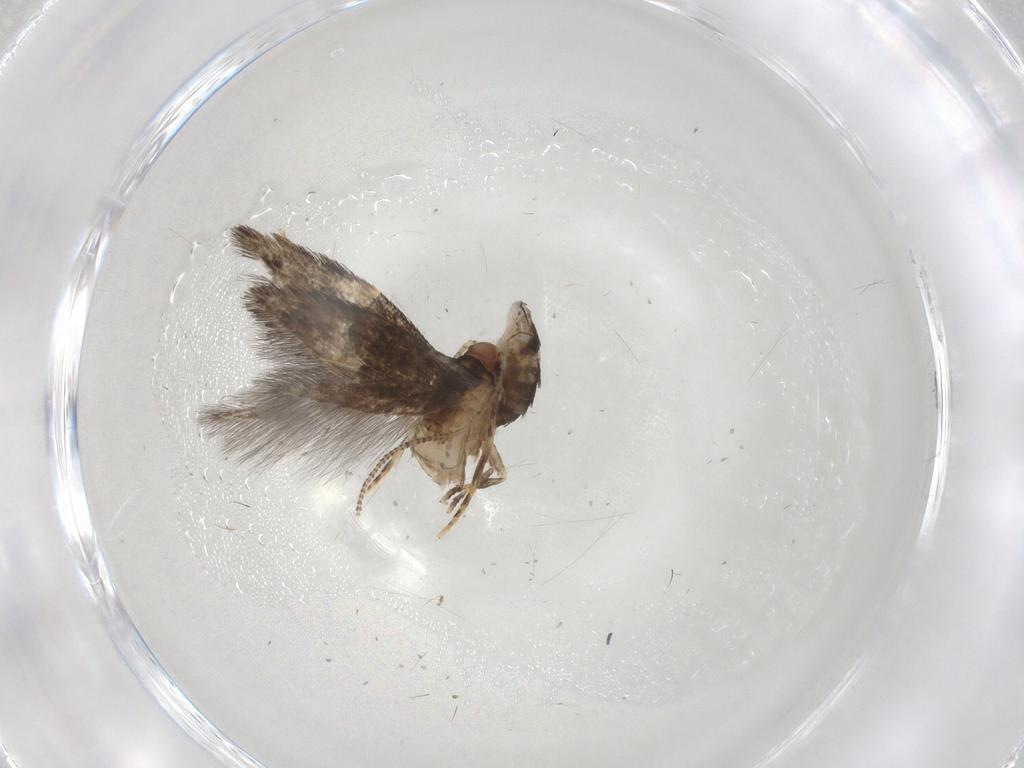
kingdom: Animalia
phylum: Arthropoda
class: Insecta
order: Lepidoptera
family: Tineidae
